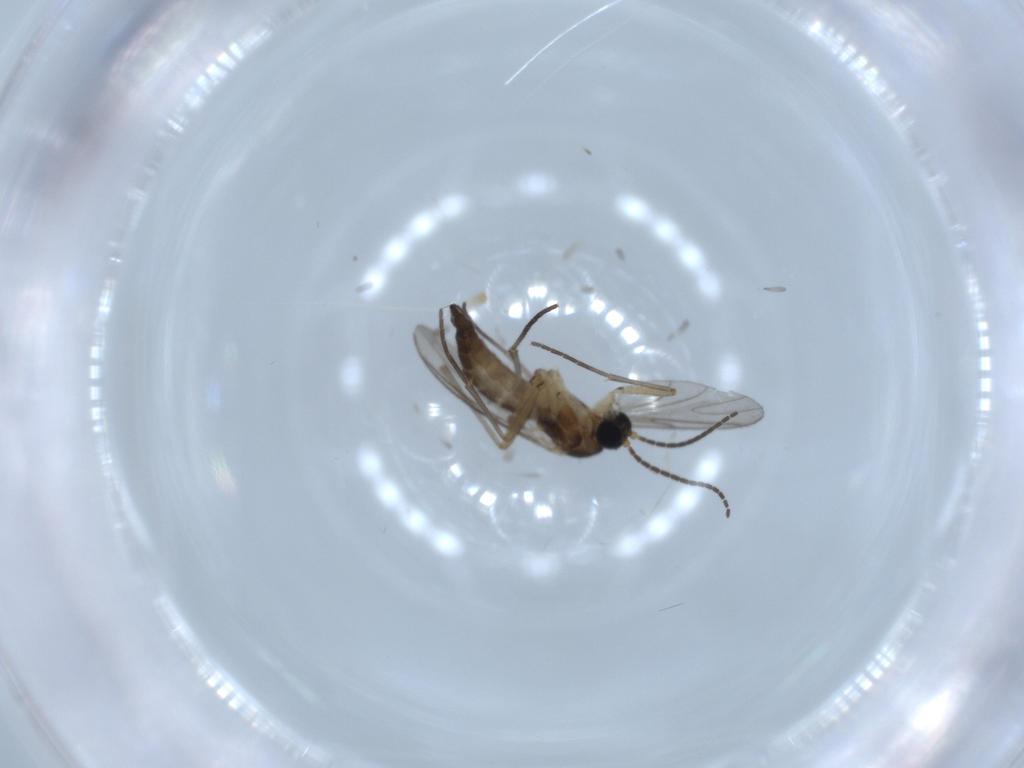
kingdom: Animalia
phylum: Arthropoda
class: Insecta
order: Diptera
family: Sciaridae
